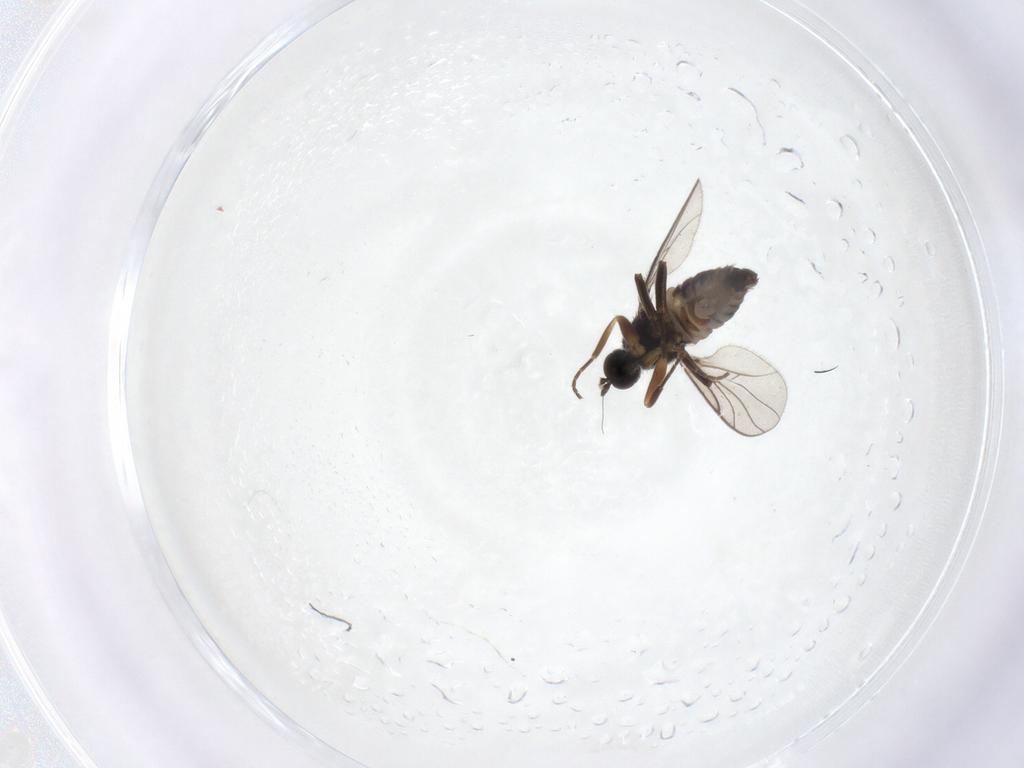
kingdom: Animalia
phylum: Arthropoda
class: Insecta
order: Diptera
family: Hybotidae
